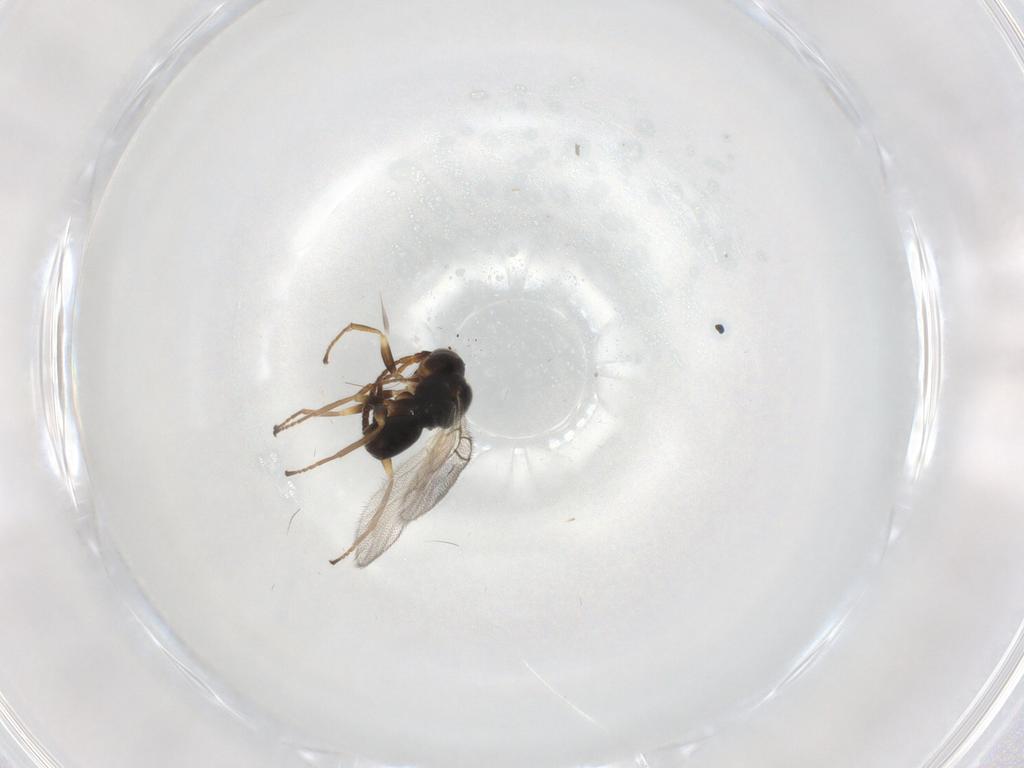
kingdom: Animalia
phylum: Arthropoda
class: Insecta
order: Hymenoptera
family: Cynipidae
